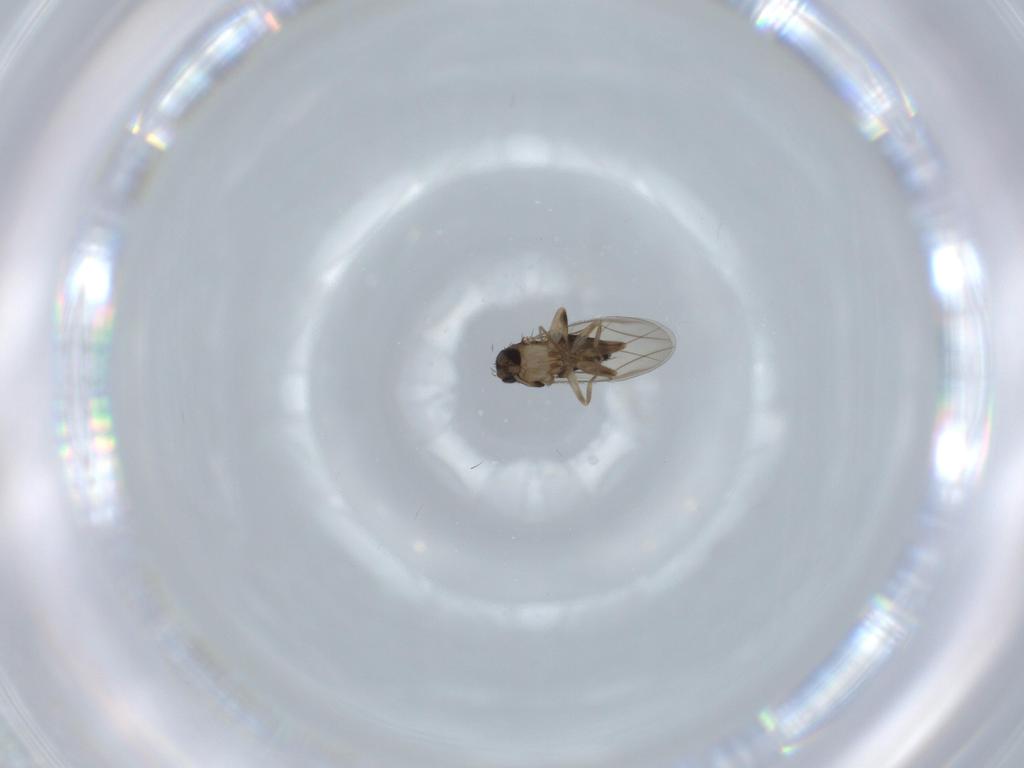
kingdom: Animalia
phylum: Arthropoda
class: Insecta
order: Diptera
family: Phoridae
